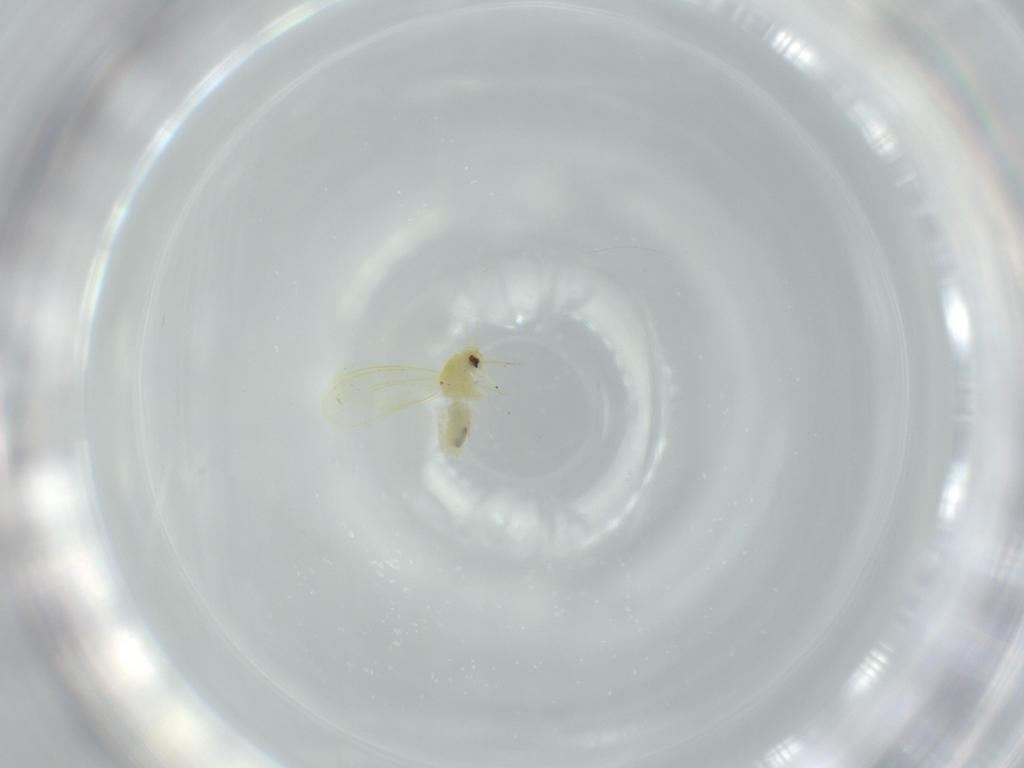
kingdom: Animalia
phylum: Arthropoda
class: Insecta
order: Hemiptera
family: Aleyrodidae
